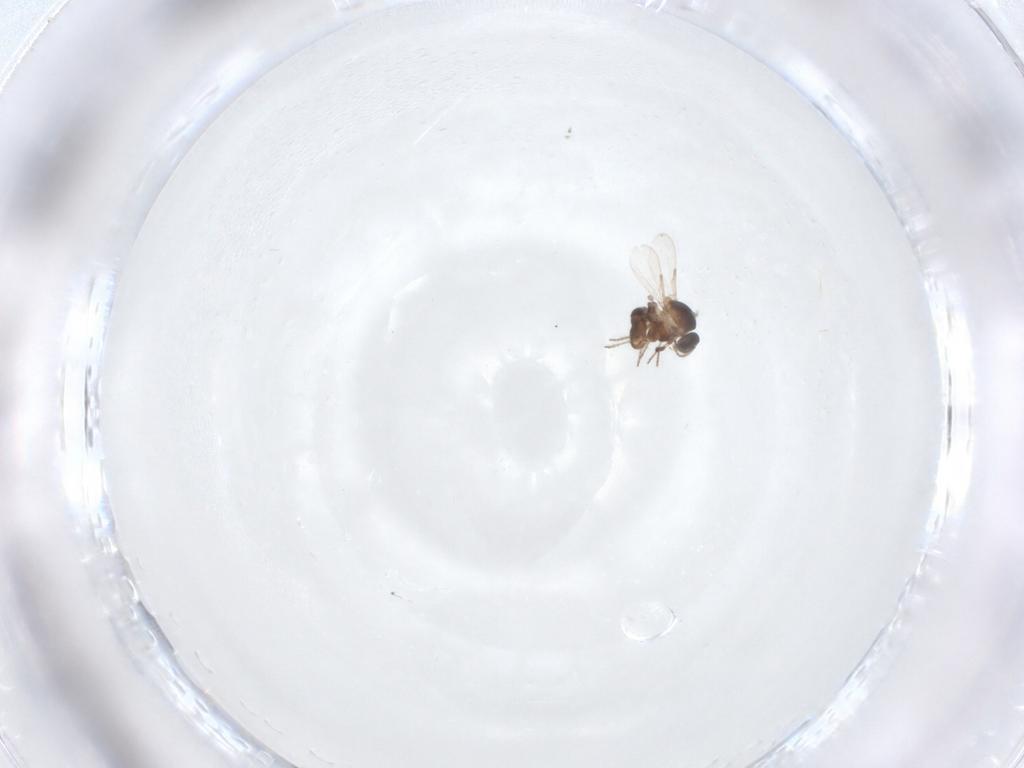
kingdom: Animalia
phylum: Arthropoda
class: Insecta
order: Diptera
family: Ceratopogonidae
